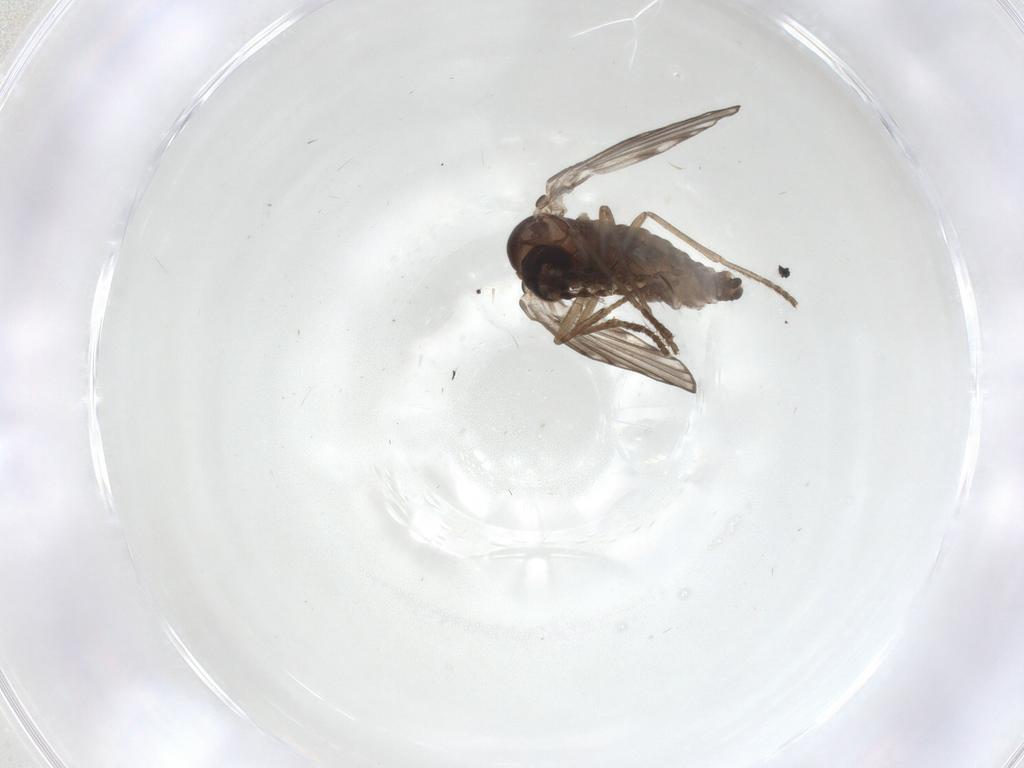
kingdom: Animalia
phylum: Arthropoda
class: Insecta
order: Diptera
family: Psychodidae
